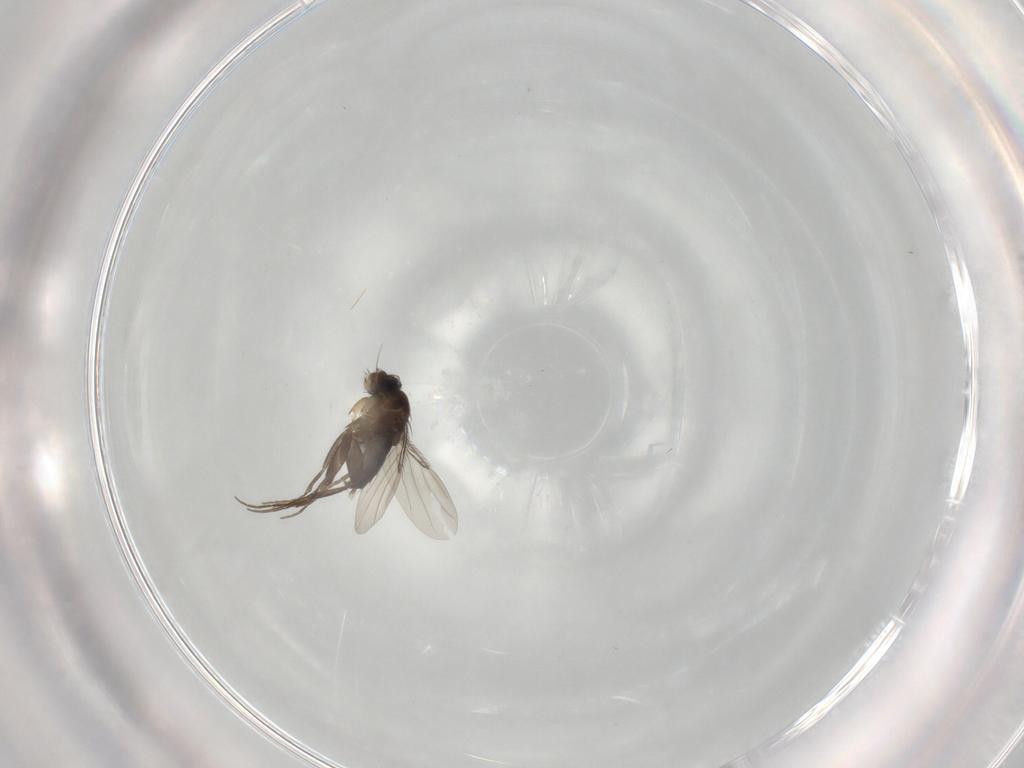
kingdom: Animalia
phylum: Arthropoda
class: Insecta
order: Diptera
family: Phoridae
